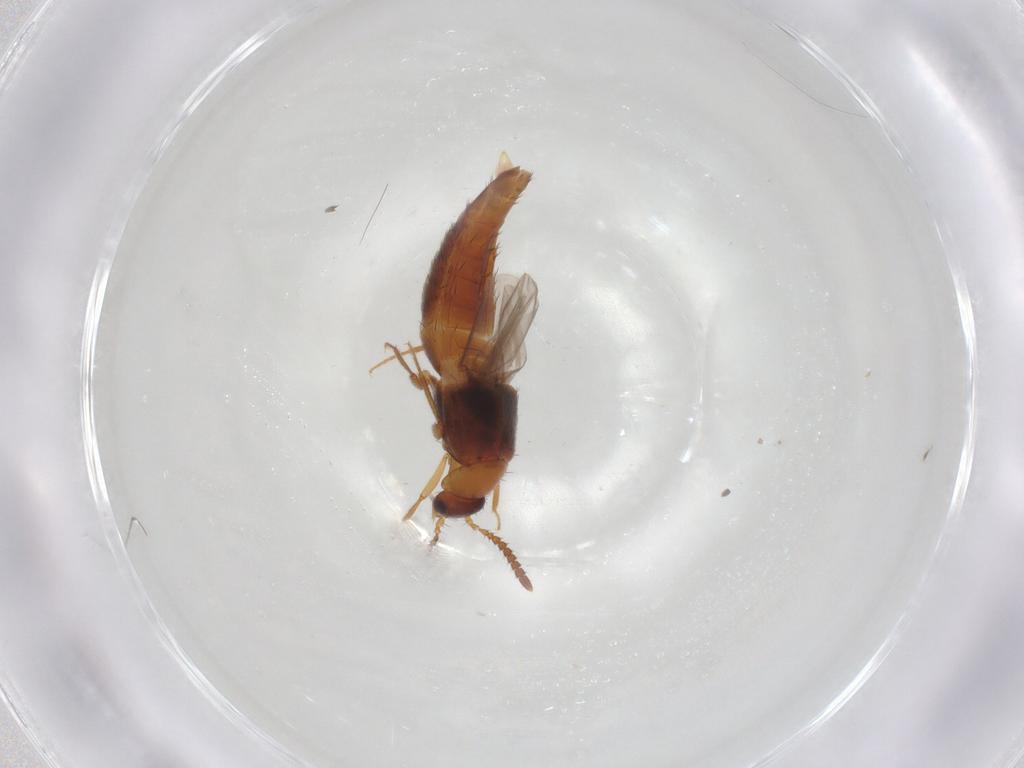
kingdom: Animalia
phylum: Arthropoda
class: Insecta
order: Coleoptera
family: Staphylinidae
